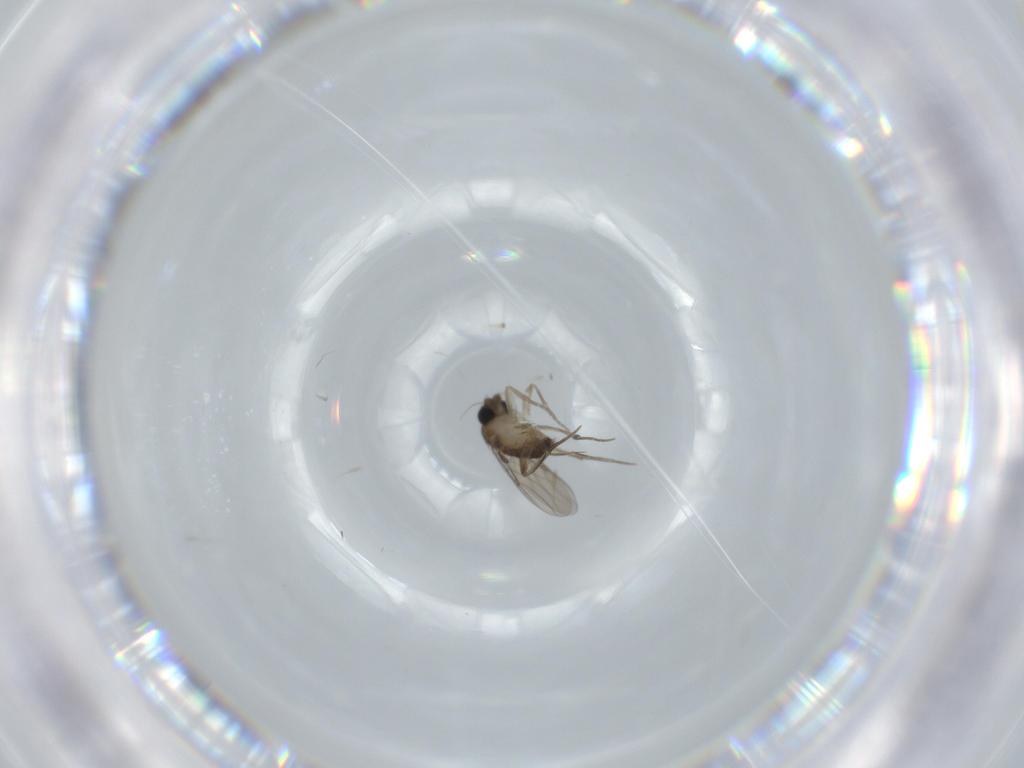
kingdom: Animalia
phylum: Arthropoda
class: Insecta
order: Diptera
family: Phoridae
